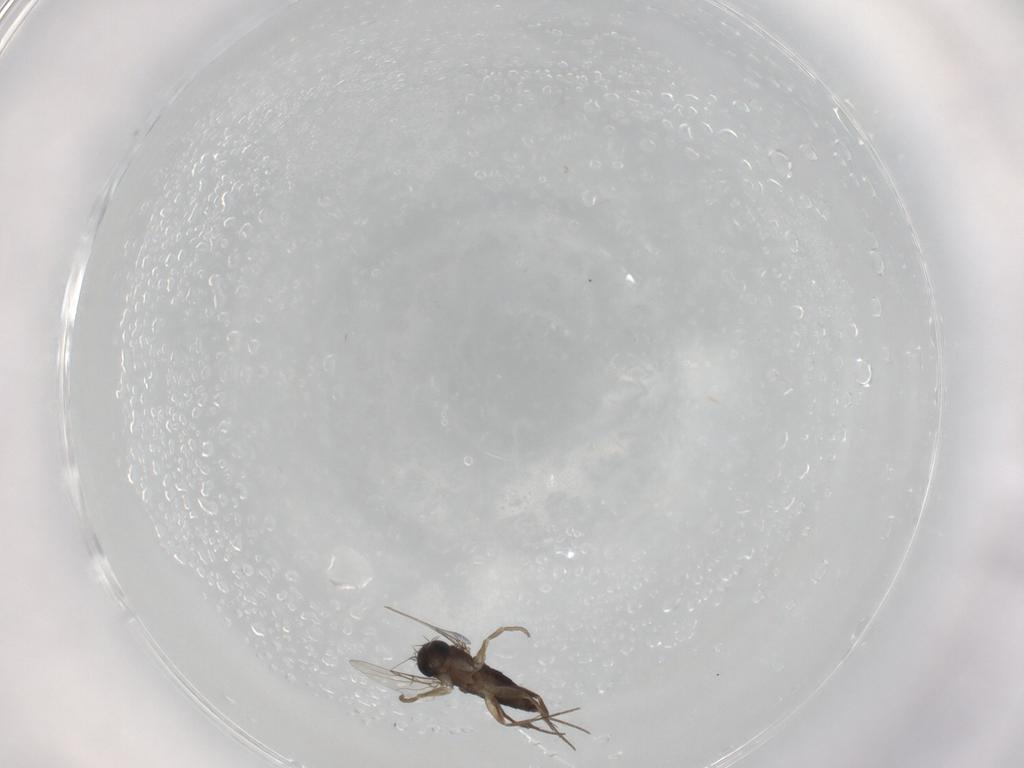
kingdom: Animalia
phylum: Arthropoda
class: Insecta
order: Diptera
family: Phoridae
